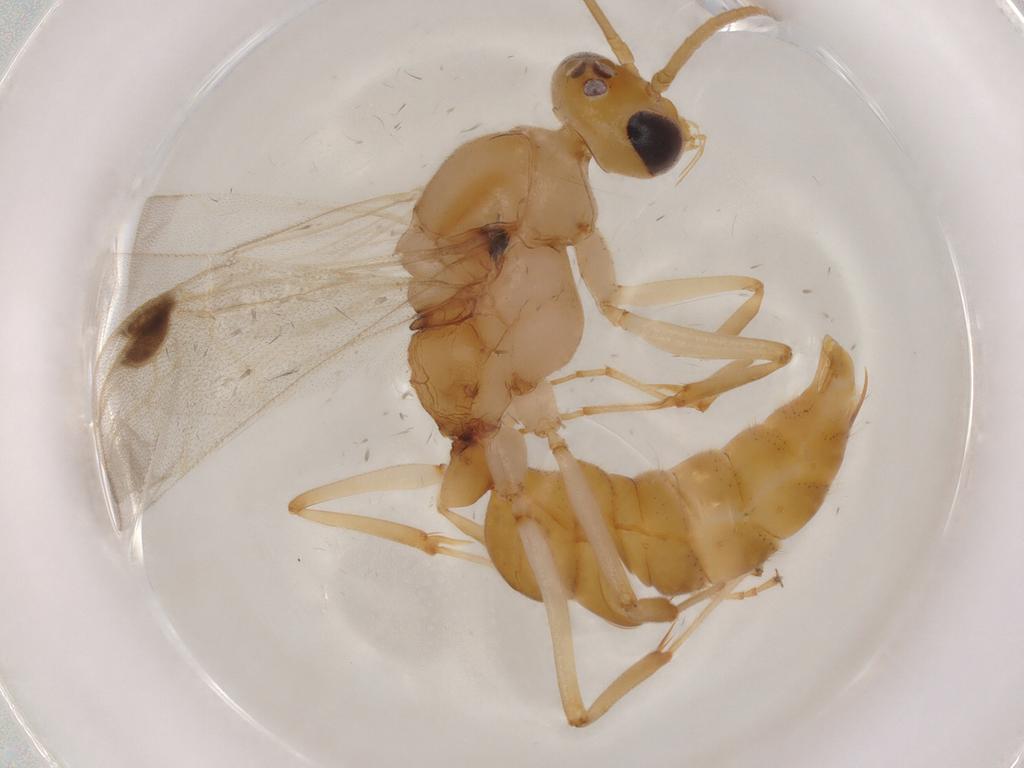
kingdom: Animalia
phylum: Arthropoda
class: Insecta
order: Hymenoptera
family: Formicidae
